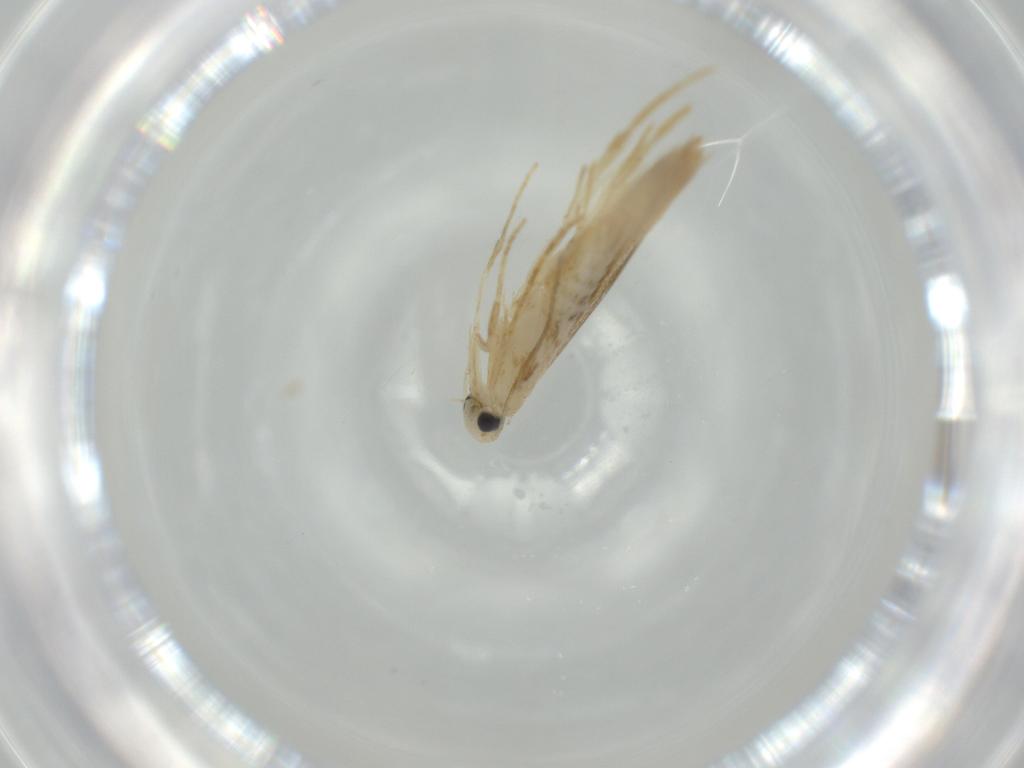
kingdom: Animalia
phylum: Arthropoda
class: Insecta
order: Lepidoptera
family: Nepticulidae
